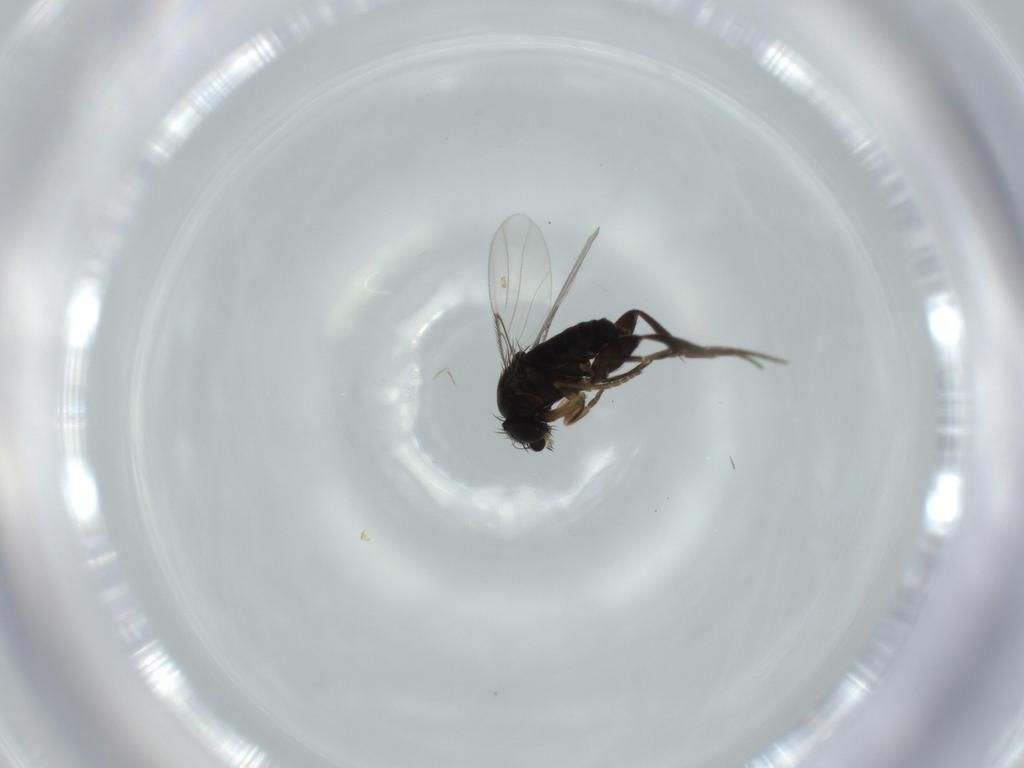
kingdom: Animalia
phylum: Arthropoda
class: Insecta
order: Diptera
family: Phoridae
